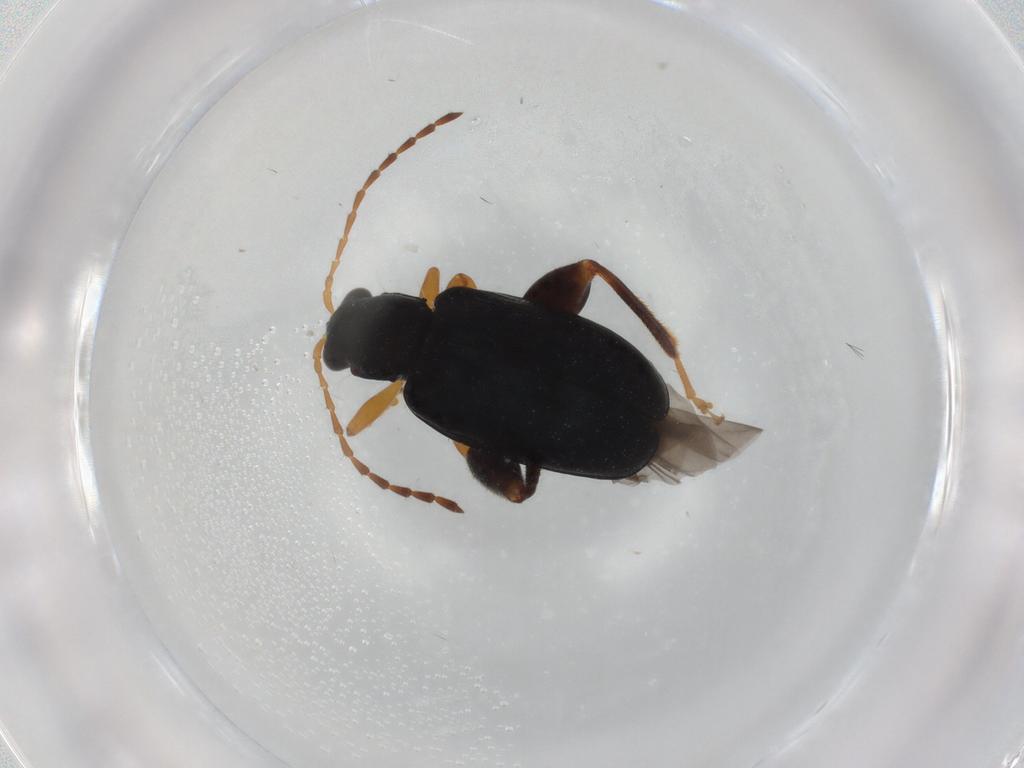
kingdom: Animalia
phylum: Arthropoda
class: Insecta
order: Coleoptera
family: Chrysomelidae
